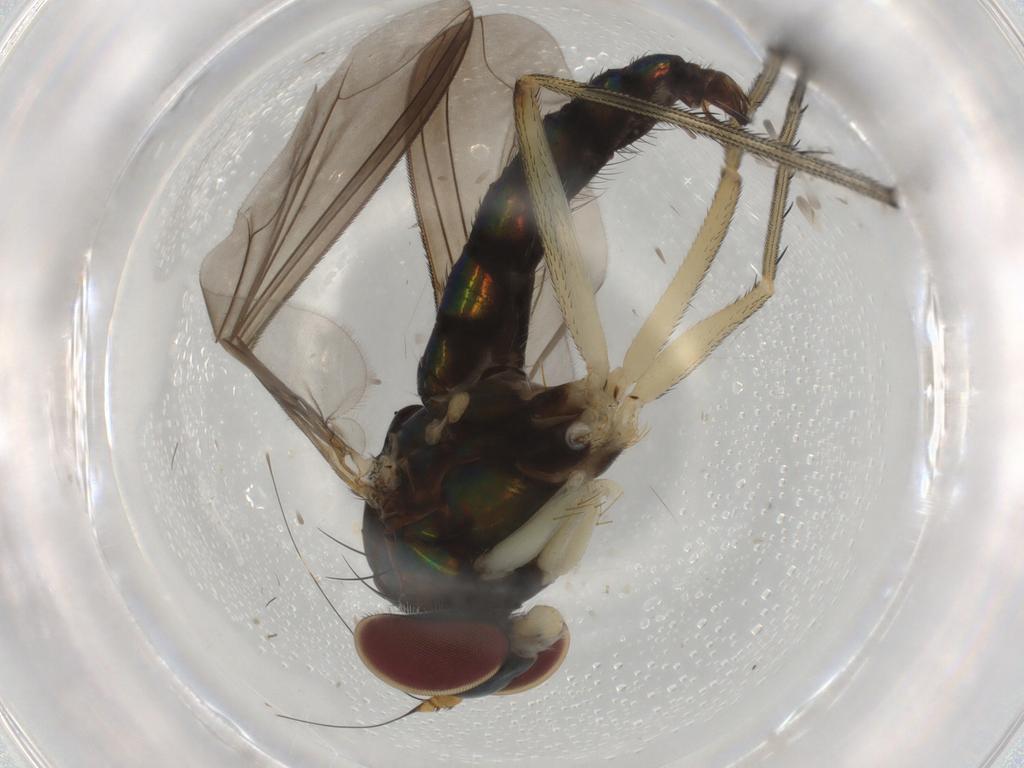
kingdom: Animalia
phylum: Arthropoda
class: Insecta
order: Diptera
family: Dolichopodidae
